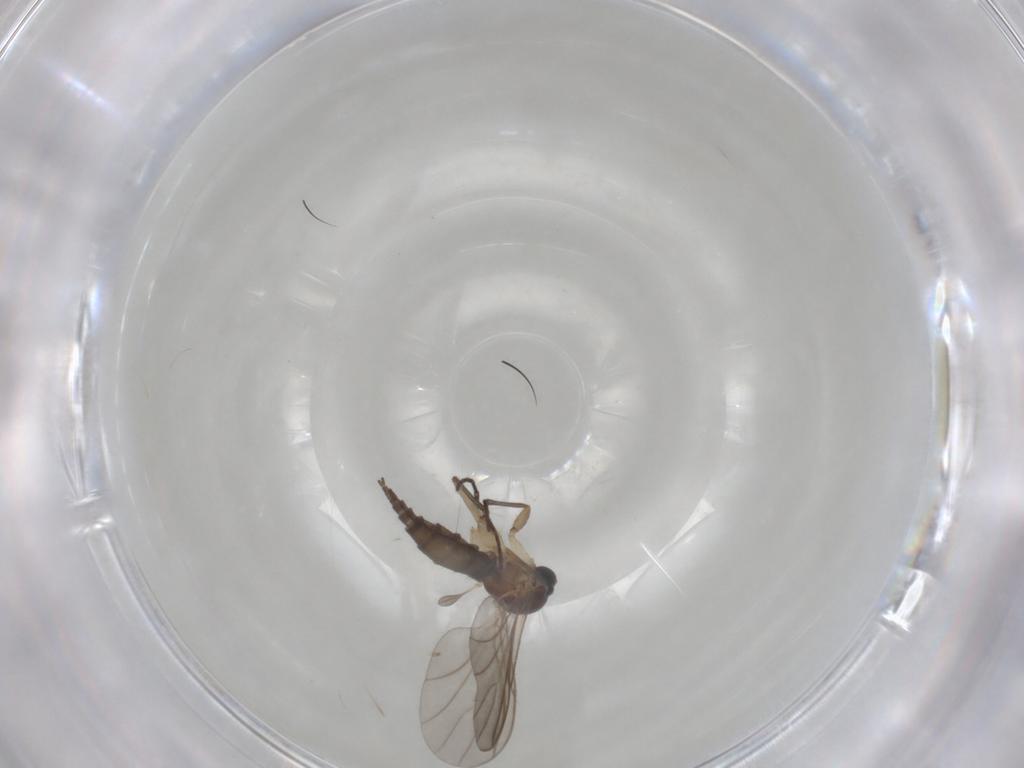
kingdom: Animalia
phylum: Arthropoda
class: Insecta
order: Diptera
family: Sciaridae
